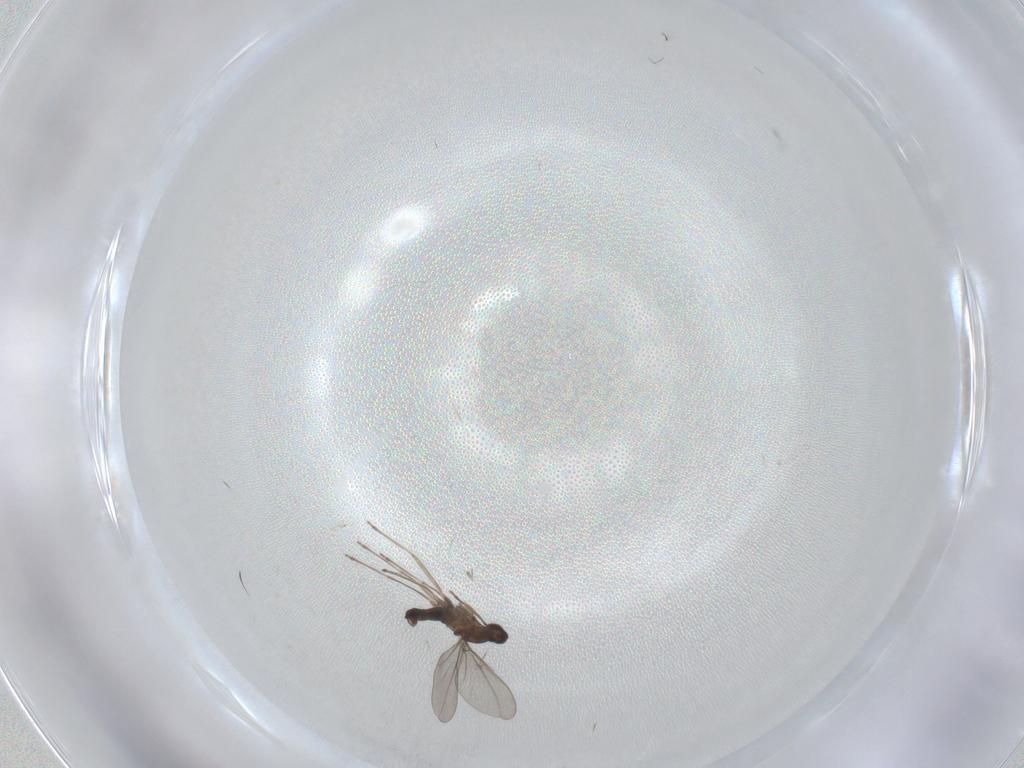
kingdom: Animalia
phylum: Arthropoda
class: Insecta
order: Diptera
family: Cecidomyiidae
